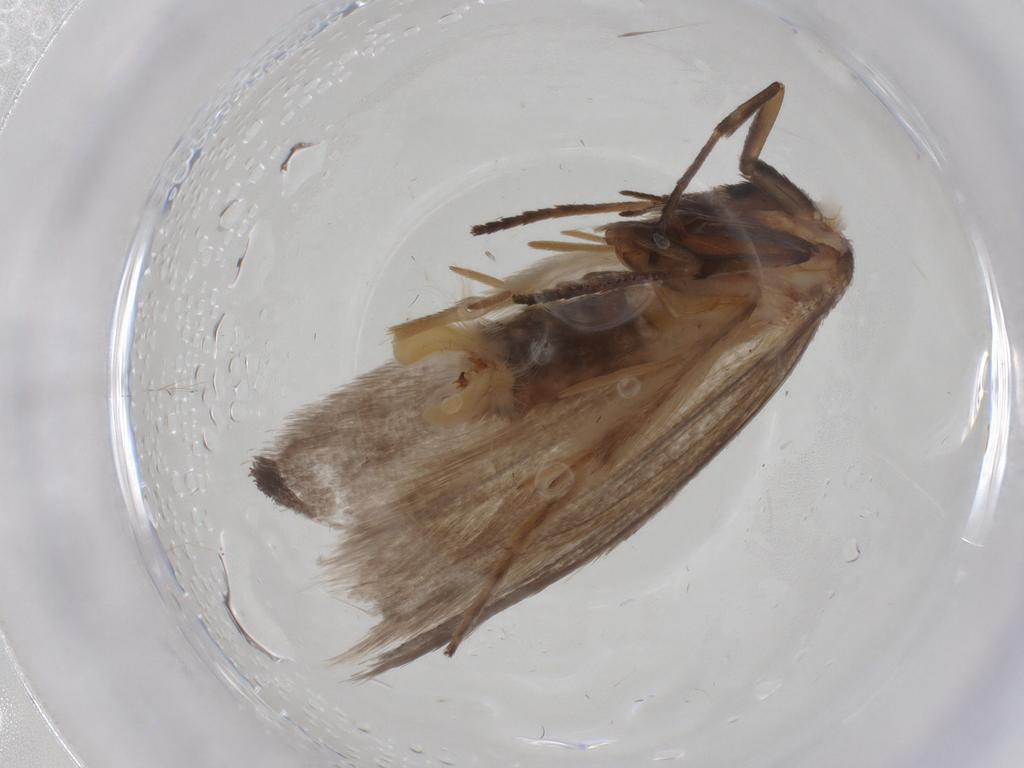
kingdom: Animalia
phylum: Arthropoda
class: Insecta
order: Lepidoptera
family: Roeslerstammiidae
